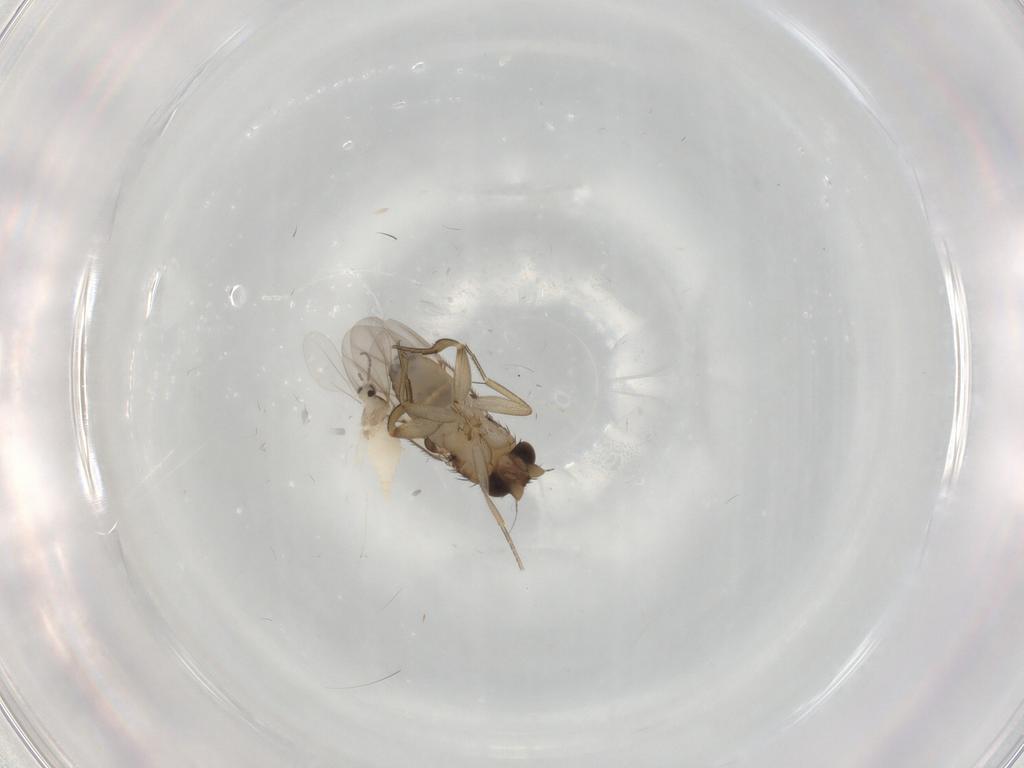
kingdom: Animalia
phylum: Arthropoda
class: Insecta
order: Diptera
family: Cecidomyiidae
